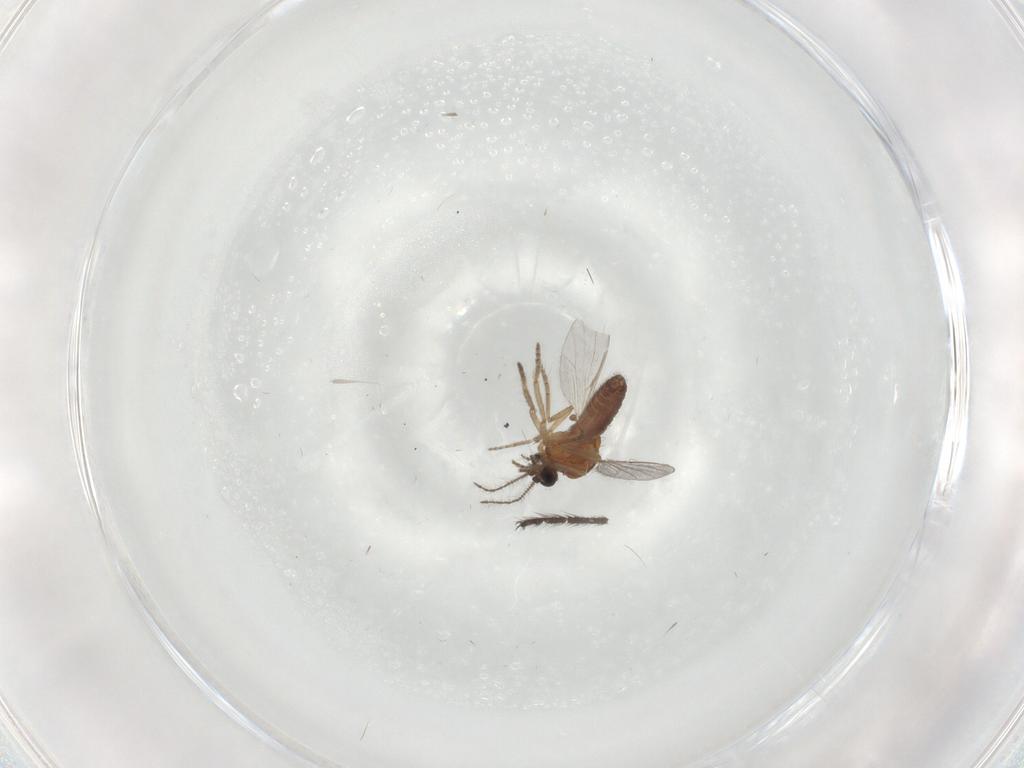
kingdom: Animalia
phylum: Arthropoda
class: Insecta
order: Diptera
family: Ceratopogonidae
